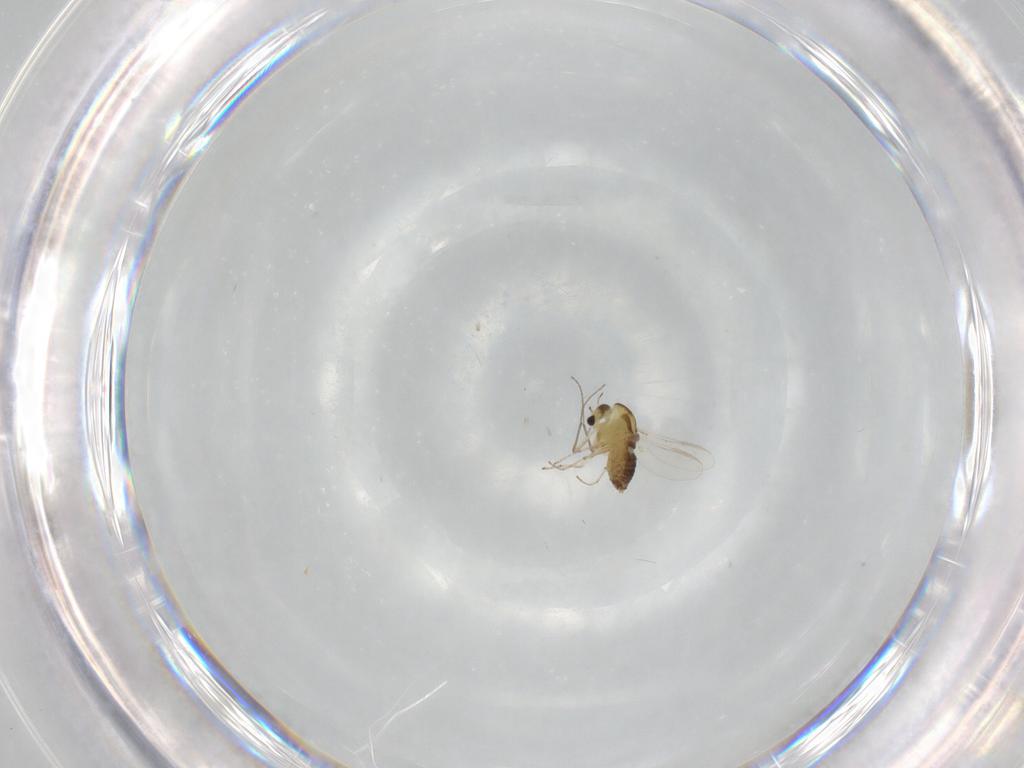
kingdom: Animalia
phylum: Arthropoda
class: Insecta
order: Diptera
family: Chironomidae
